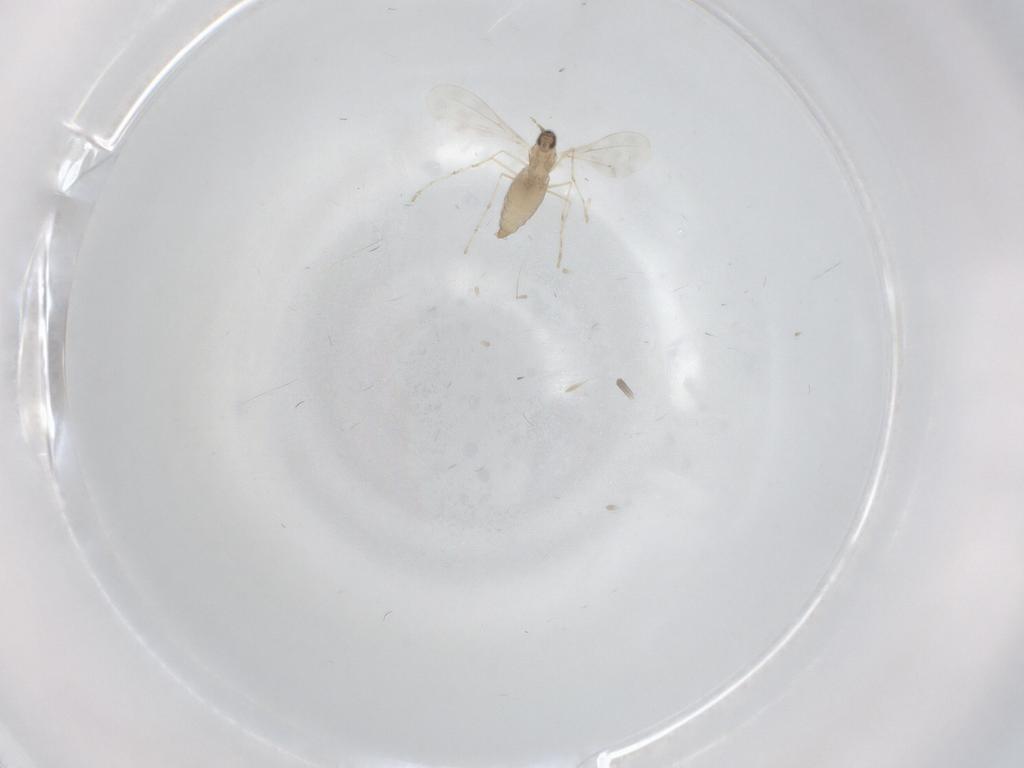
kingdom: Animalia
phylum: Arthropoda
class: Insecta
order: Diptera
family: Cecidomyiidae
